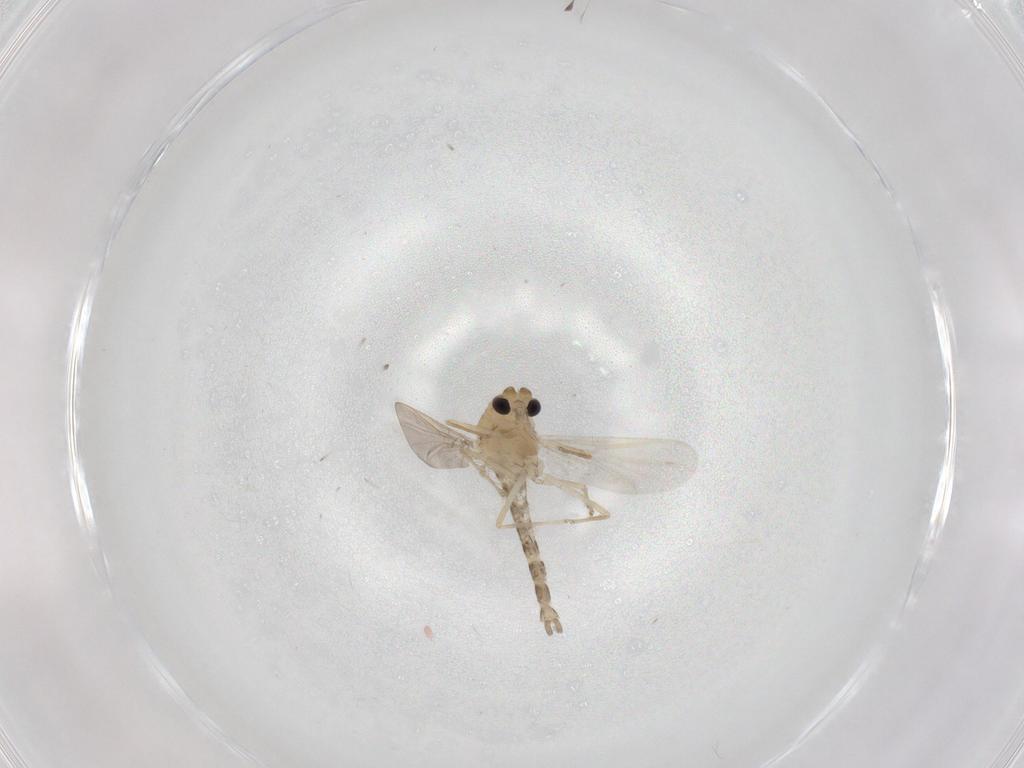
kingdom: Animalia
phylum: Arthropoda
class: Insecta
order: Diptera
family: Chironomidae
